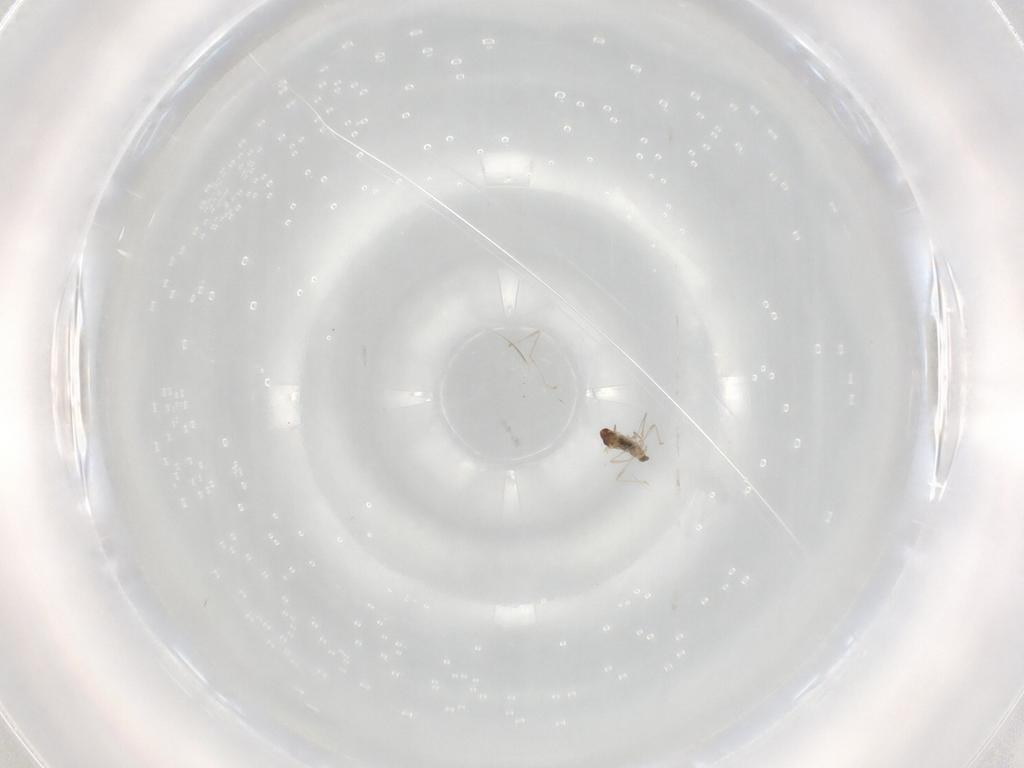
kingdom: Animalia
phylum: Arthropoda
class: Insecta
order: Diptera
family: Cecidomyiidae
